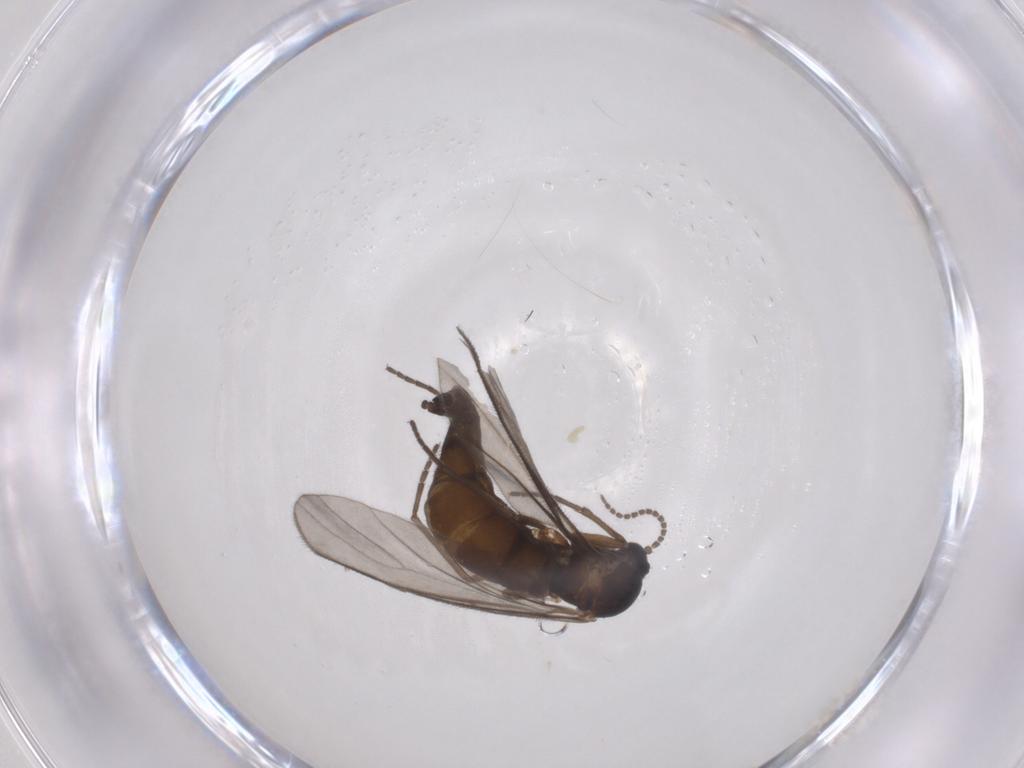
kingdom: Animalia
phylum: Arthropoda
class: Insecta
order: Diptera
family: Sciaridae
